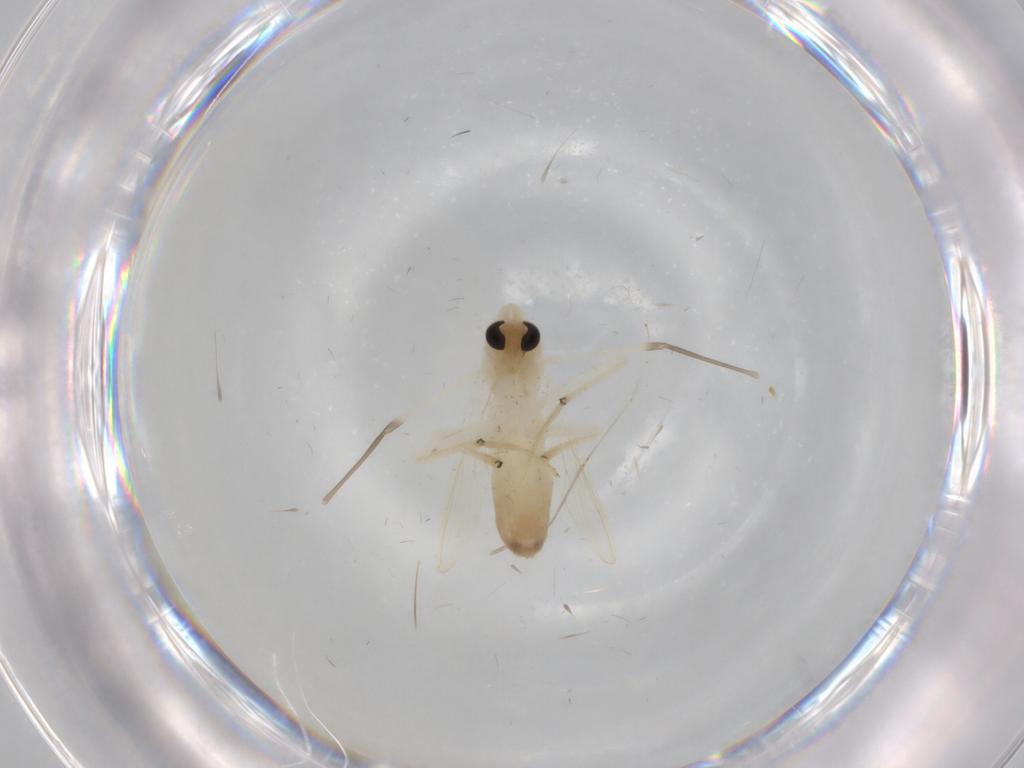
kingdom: Animalia
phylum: Arthropoda
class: Insecta
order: Diptera
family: Chironomidae
